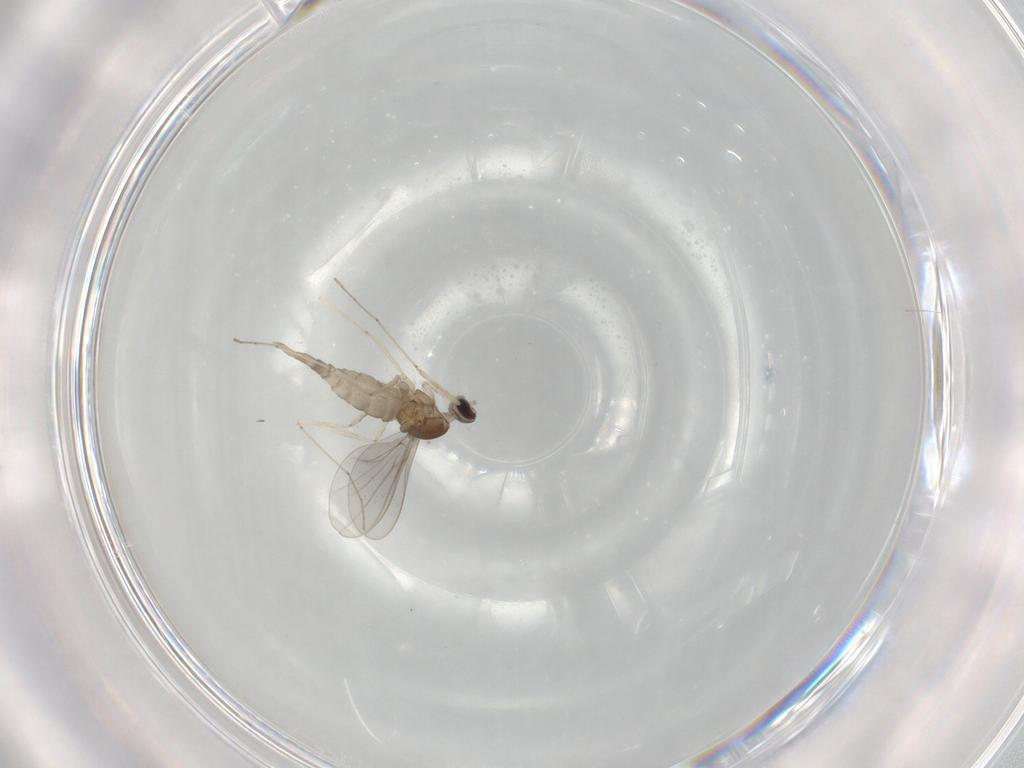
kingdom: Animalia
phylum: Arthropoda
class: Insecta
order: Diptera
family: Cecidomyiidae
